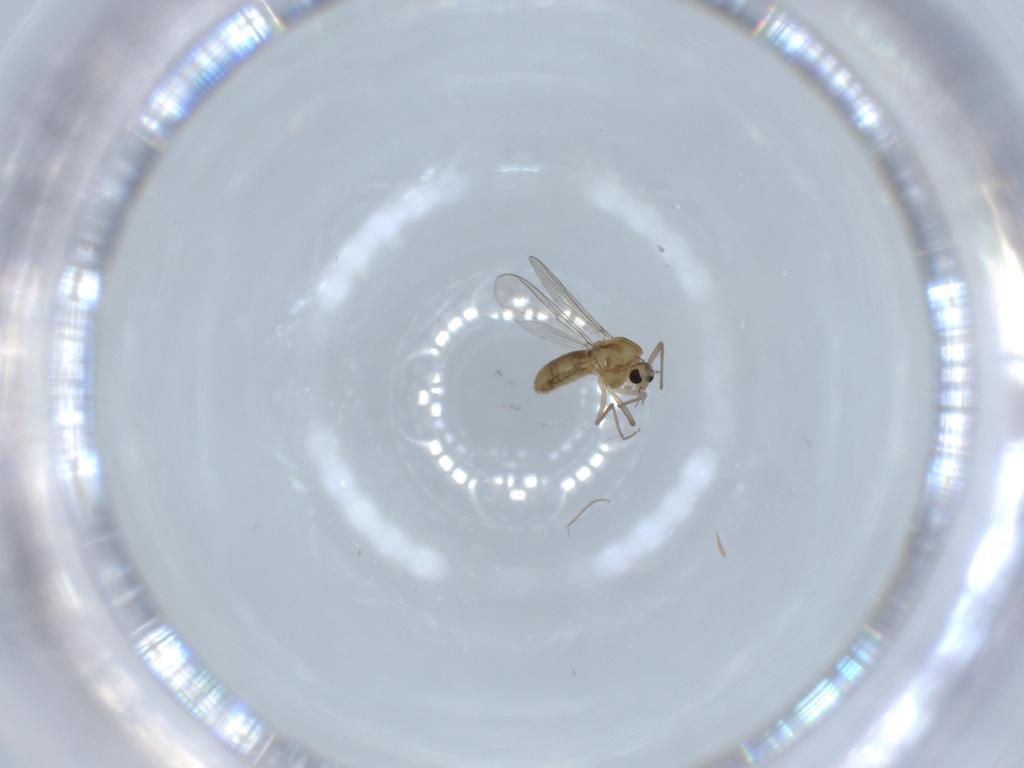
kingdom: Animalia
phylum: Arthropoda
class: Insecta
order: Diptera
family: Chironomidae
